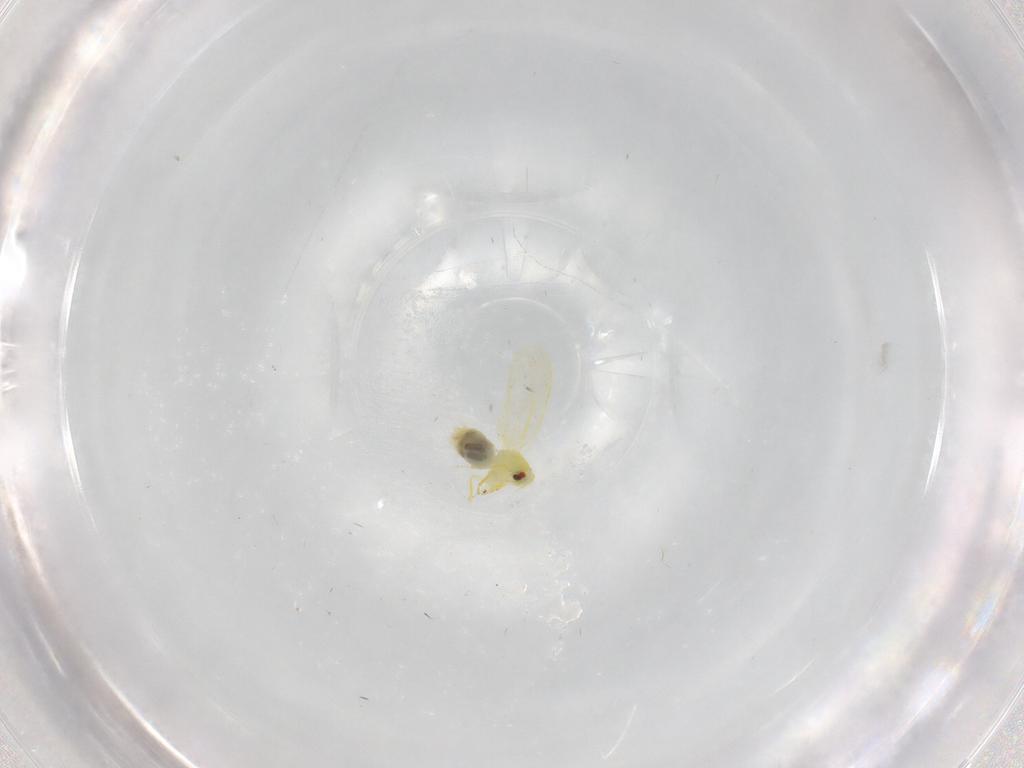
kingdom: Animalia
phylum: Arthropoda
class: Insecta
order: Hemiptera
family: Aleyrodidae
